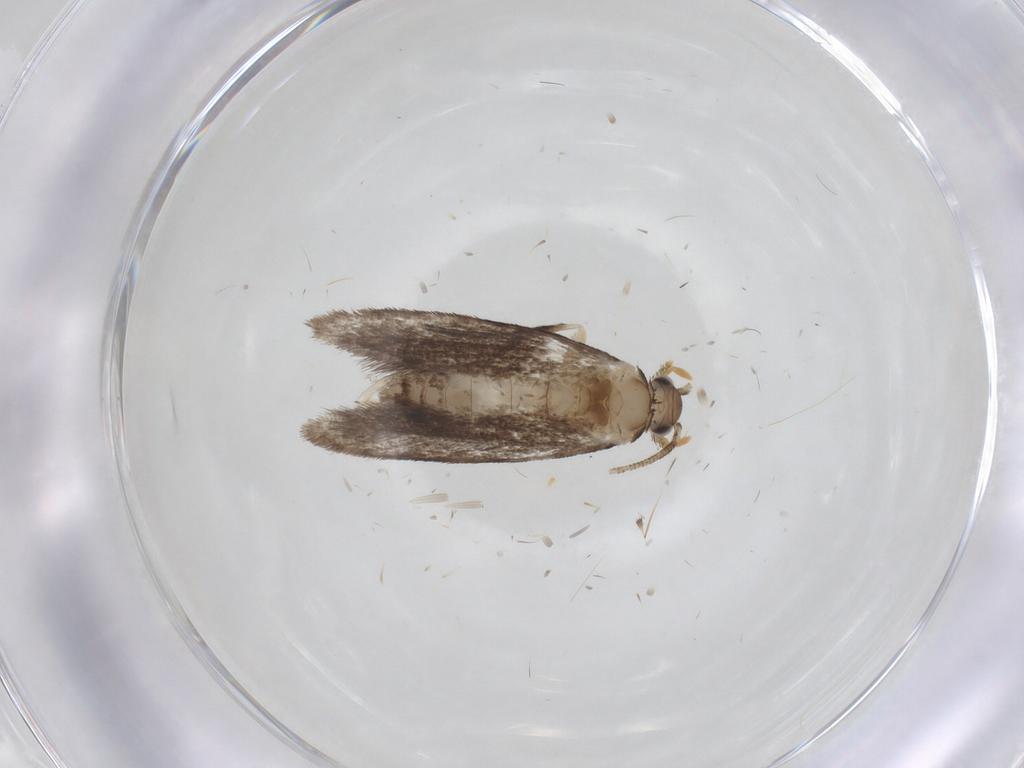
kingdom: Animalia
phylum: Arthropoda
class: Insecta
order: Lepidoptera
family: Dryadaulidae
